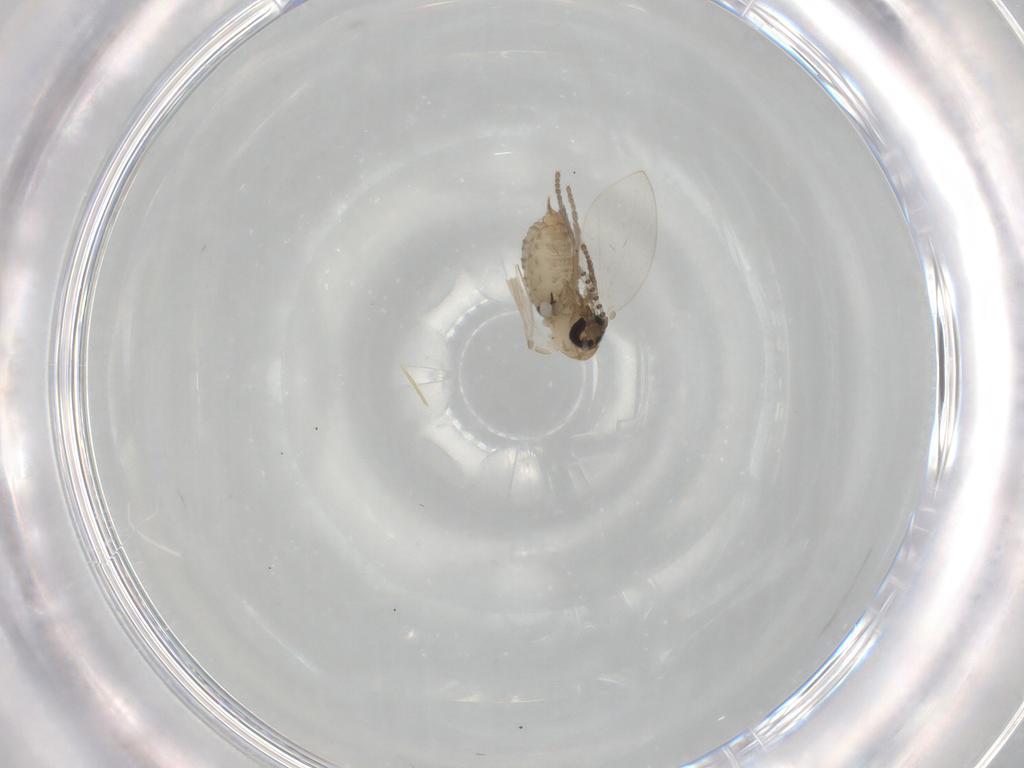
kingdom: Animalia
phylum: Arthropoda
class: Insecta
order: Diptera
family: Psychodidae
